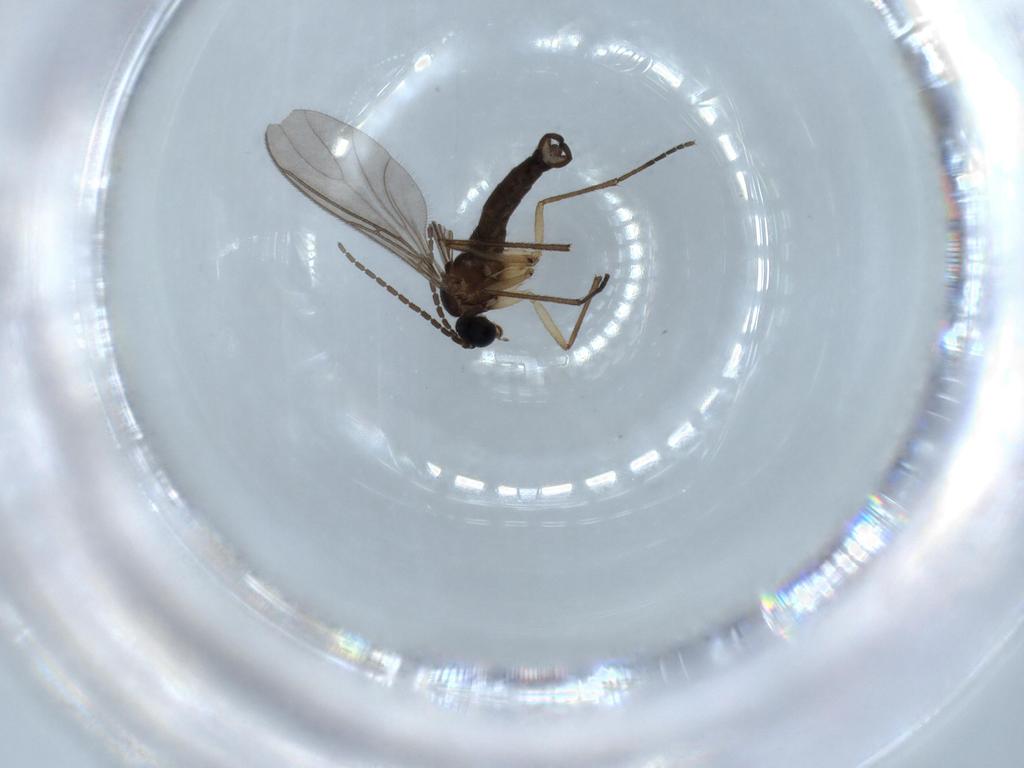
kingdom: Animalia
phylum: Arthropoda
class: Insecta
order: Diptera
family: Sciaridae
